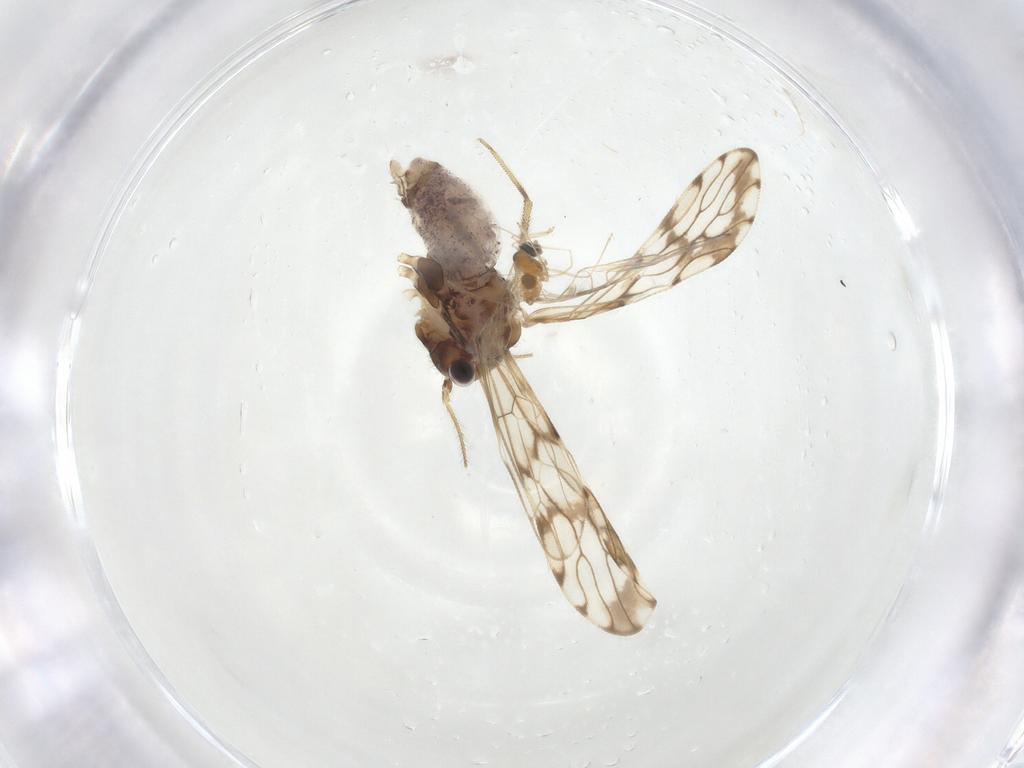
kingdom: Animalia
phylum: Arthropoda
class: Insecta
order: Psocodea
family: Epipsocidae
